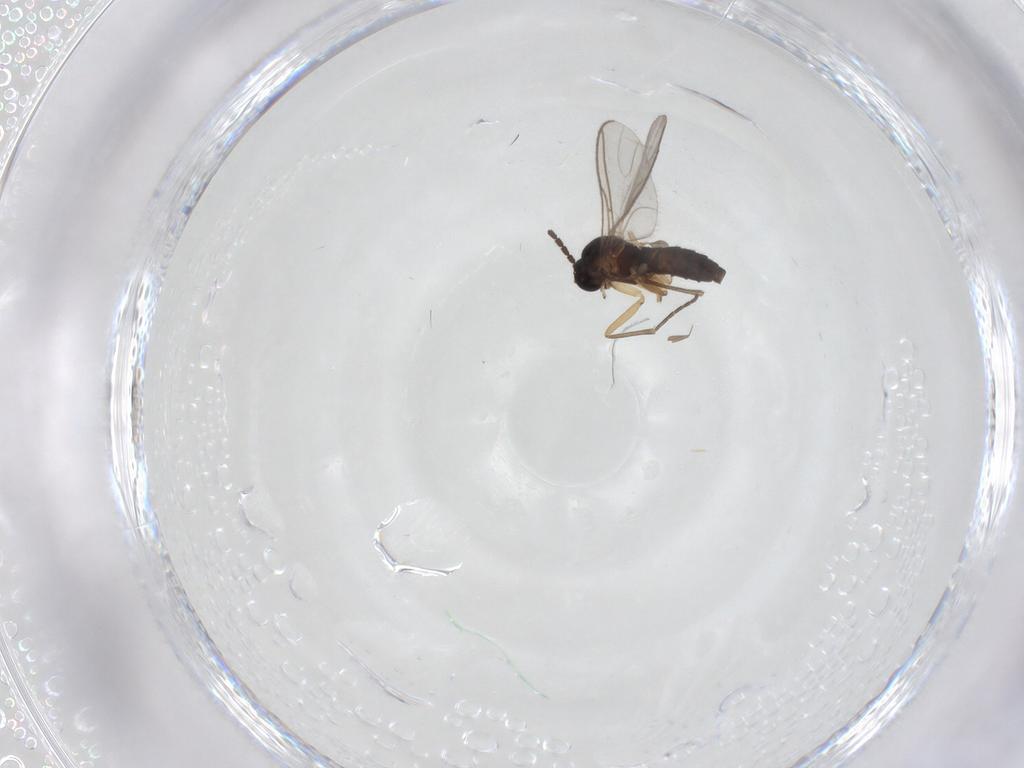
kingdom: Animalia
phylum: Arthropoda
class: Insecta
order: Diptera
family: Sciaridae
